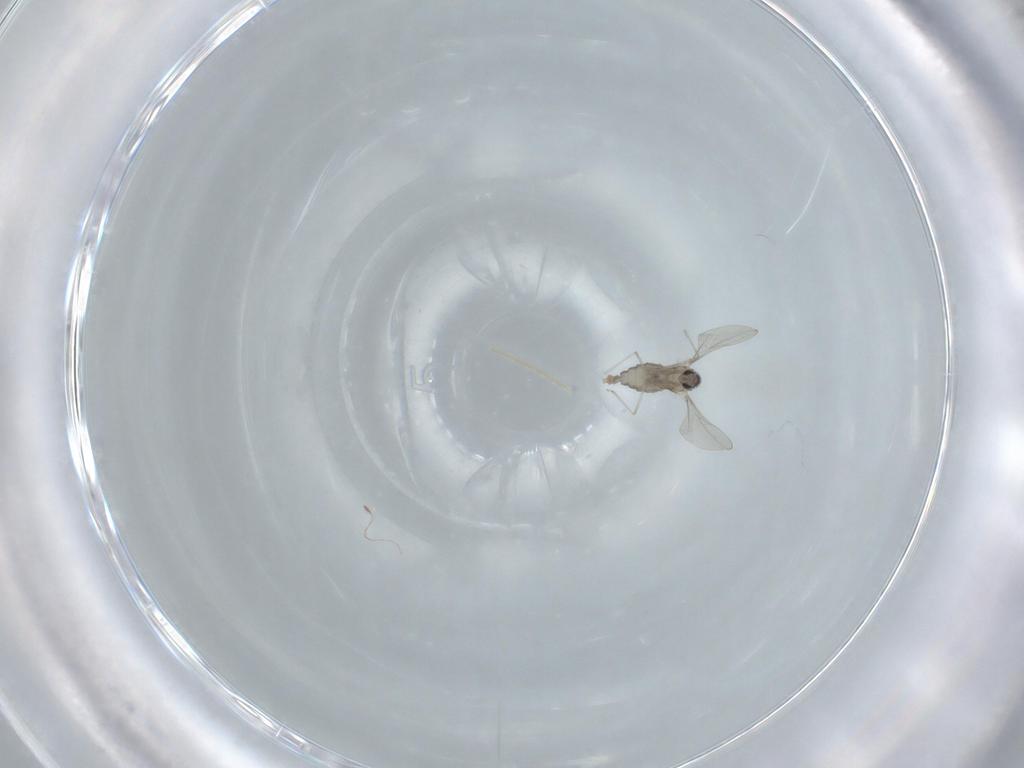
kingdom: Animalia
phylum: Arthropoda
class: Insecta
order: Diptera
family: Cecidomyiidae
